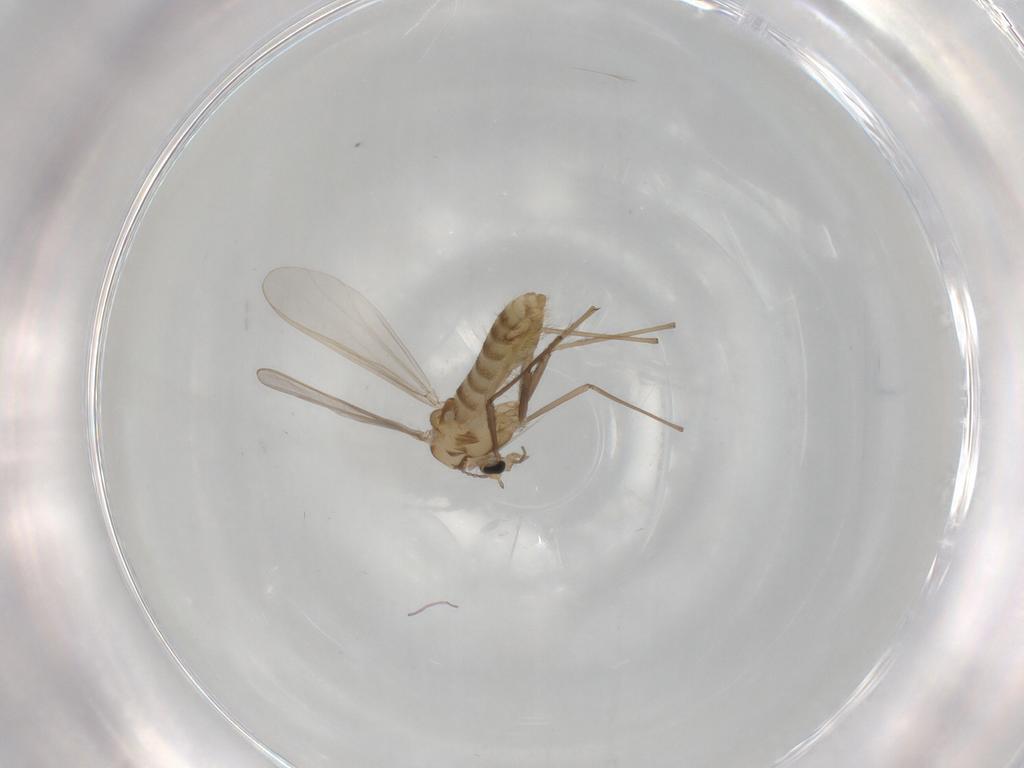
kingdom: Animalia
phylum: Arthropoda
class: Insecta
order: Diptera
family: Chironomidae
